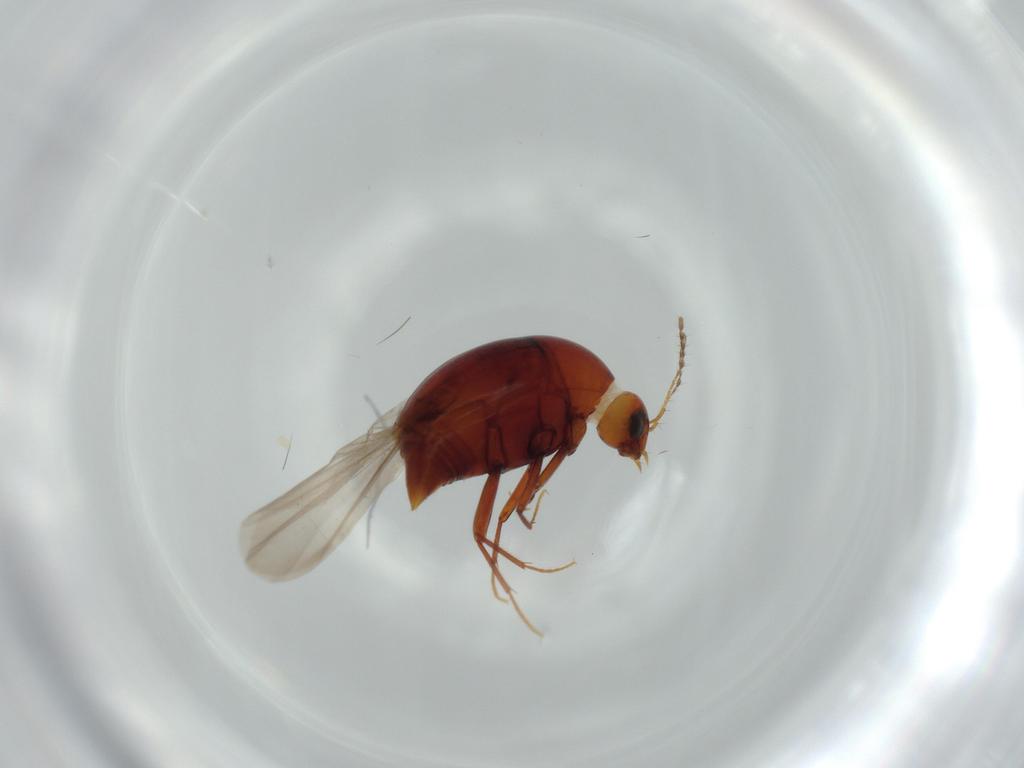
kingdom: Animalia
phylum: Arthropoda
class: Insecta
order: Coleoptera
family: Staphylinidae
